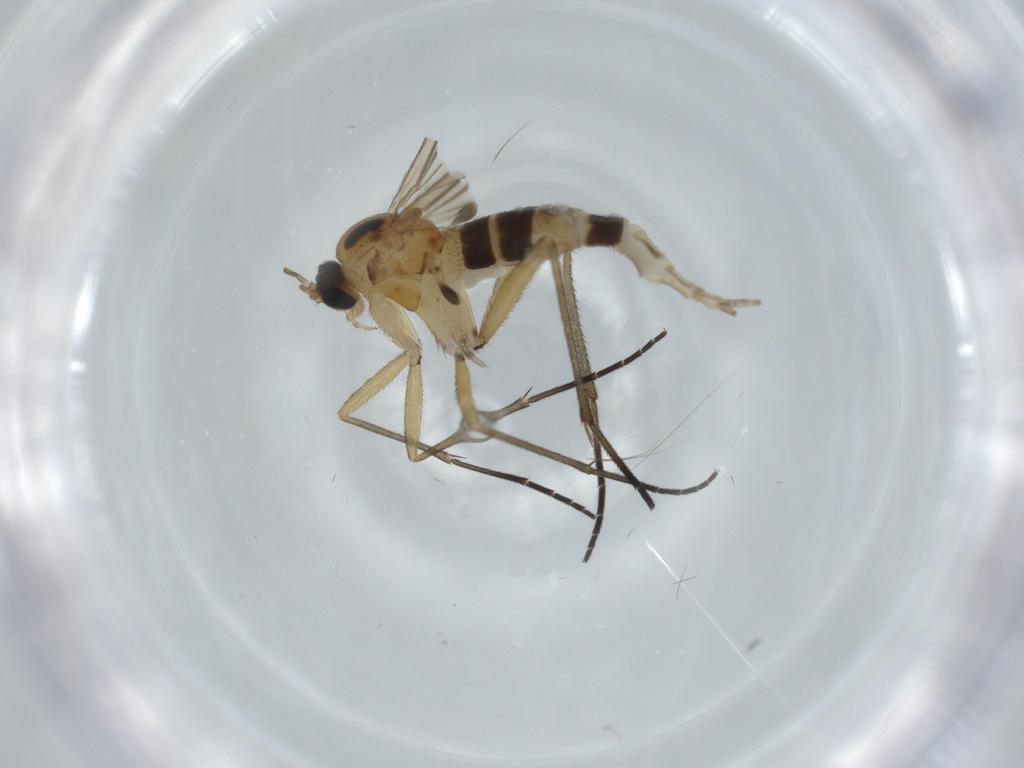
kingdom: Animalia
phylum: Arthropoda
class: Insecta
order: Diptera
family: Sciaridae
